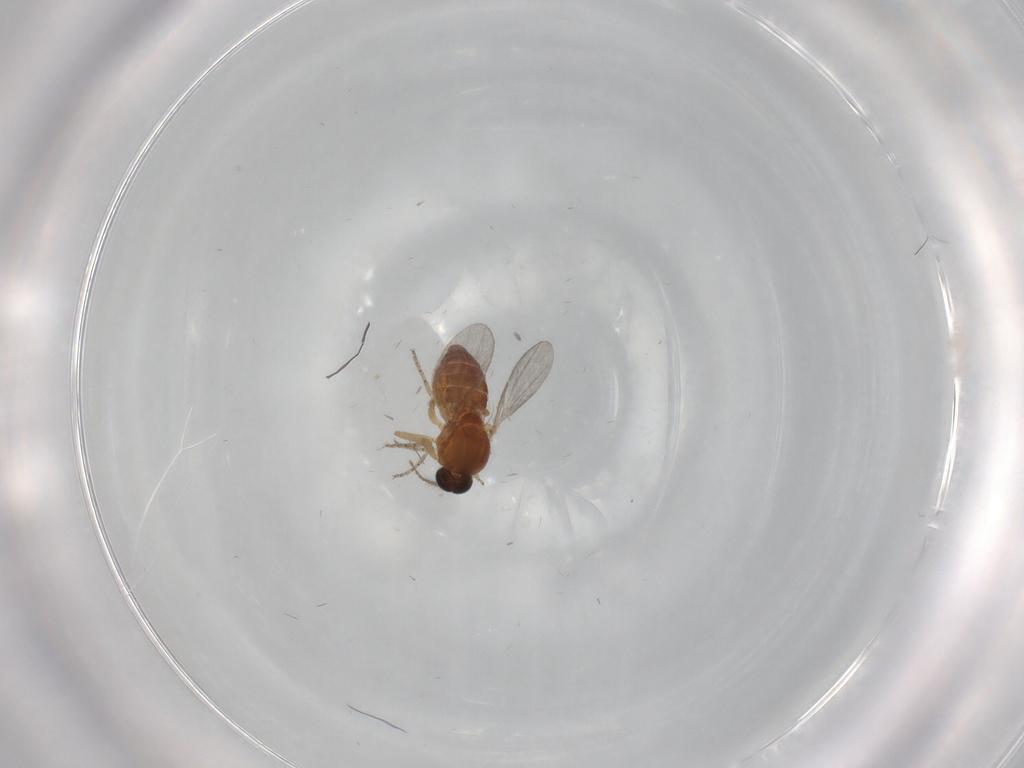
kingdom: Animalia
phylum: Arthropoda
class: Insecta
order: Diptera
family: Ceratopogonidae
